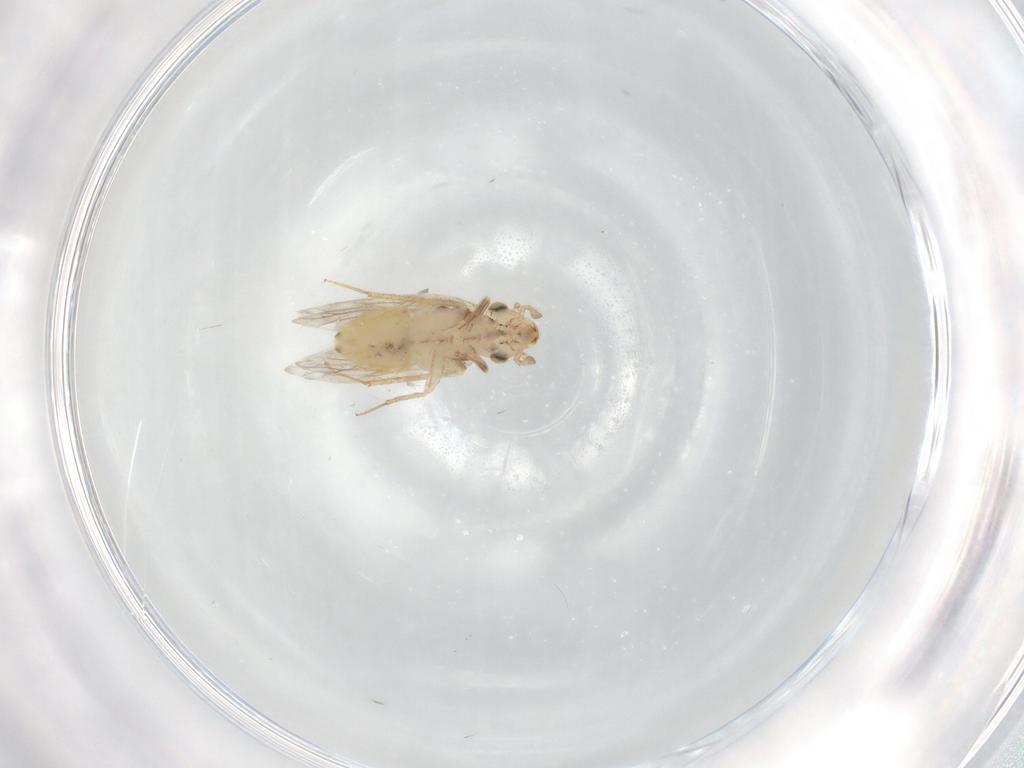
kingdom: Animalia
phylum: Arthropoda
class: Insecta
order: Psocodea
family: Lepidopsocidae
